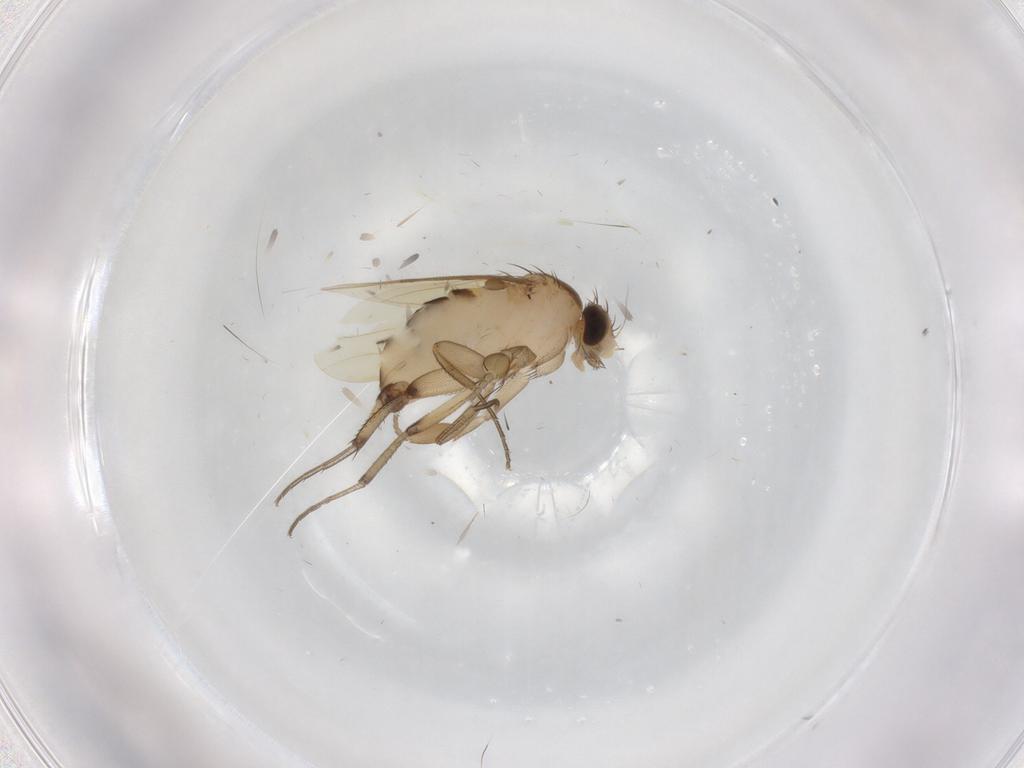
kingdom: Animalia
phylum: Arthropoda
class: Insecta
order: Diptera
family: Phoridae
